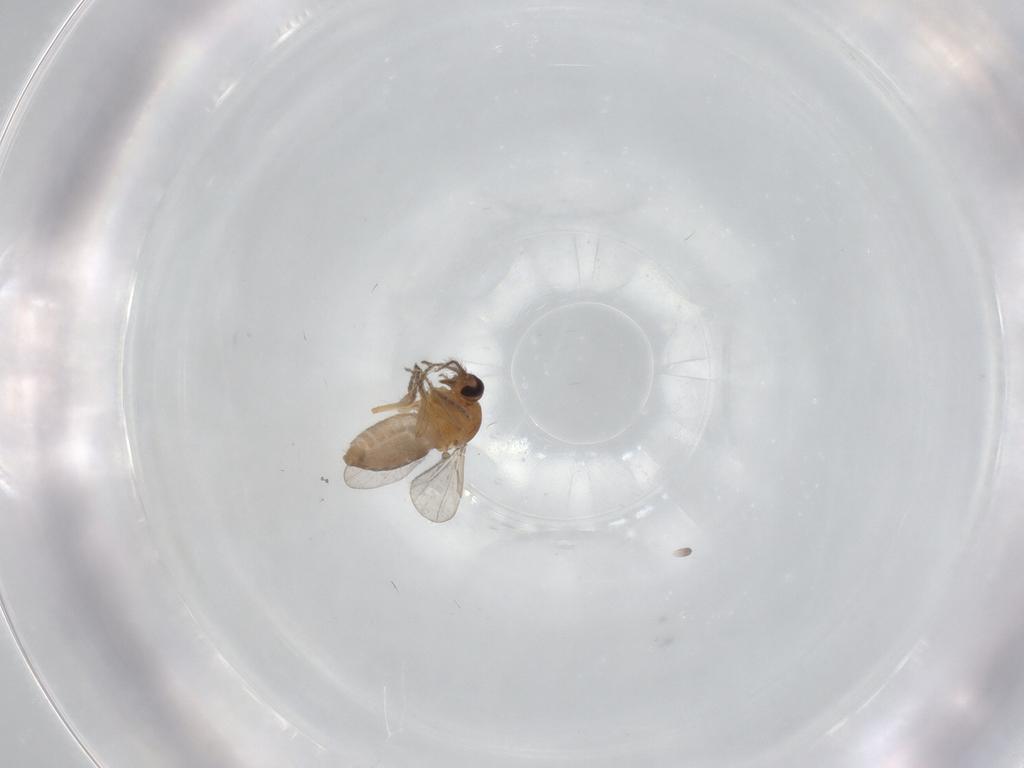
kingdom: Animalia
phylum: Arthropoda
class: Insecta
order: Diptera
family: Ceratopogonidae
